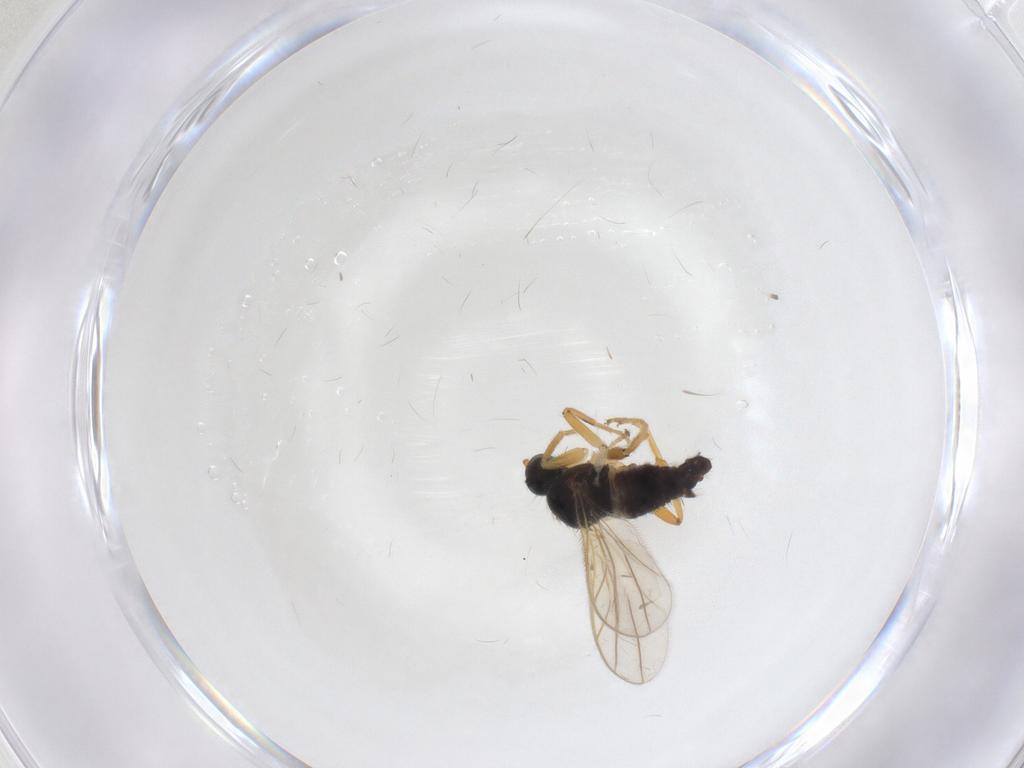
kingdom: Animalia
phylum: Arthropoda
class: Insecta
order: Diptera
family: Hybotidae
